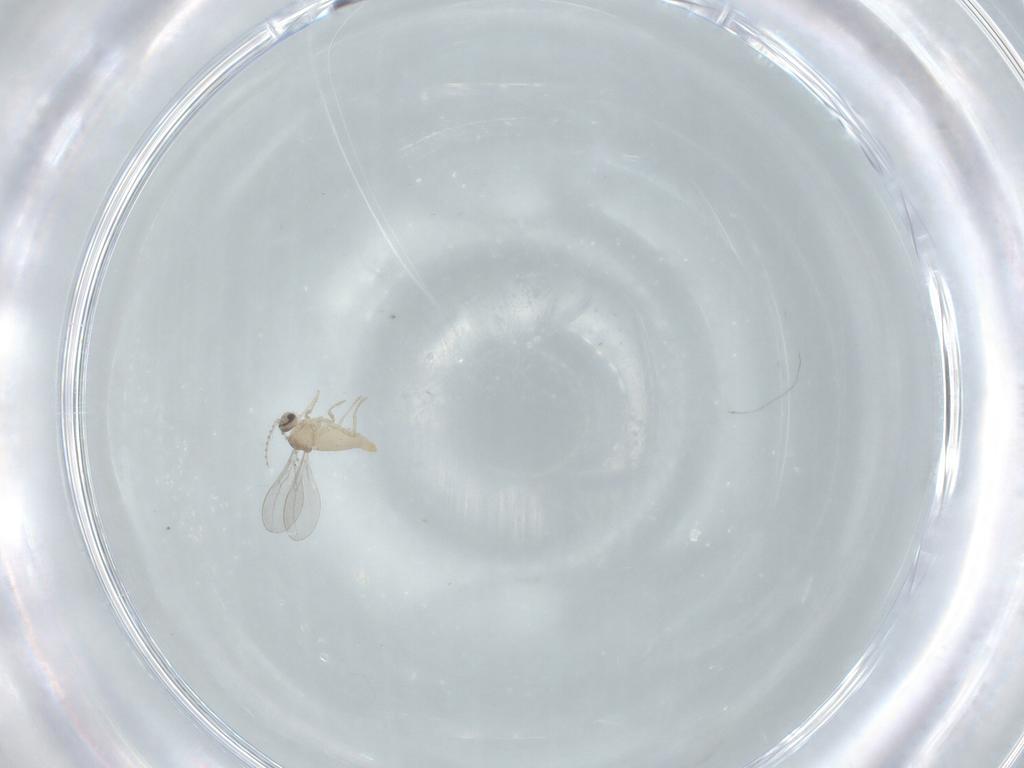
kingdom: Animalia
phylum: Arthropoda
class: Insecta
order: Diptera
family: Cecidomyiidae
